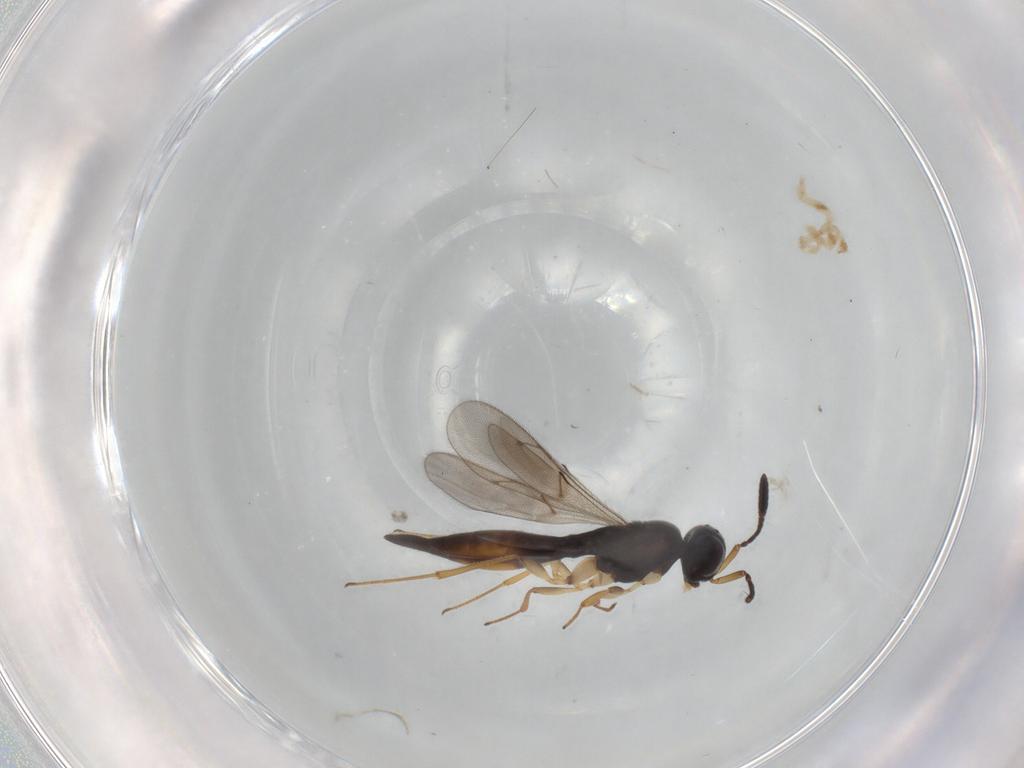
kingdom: Animalia
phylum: Arthropoda
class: Insecta
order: Hymenoptera
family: Scelionidae
